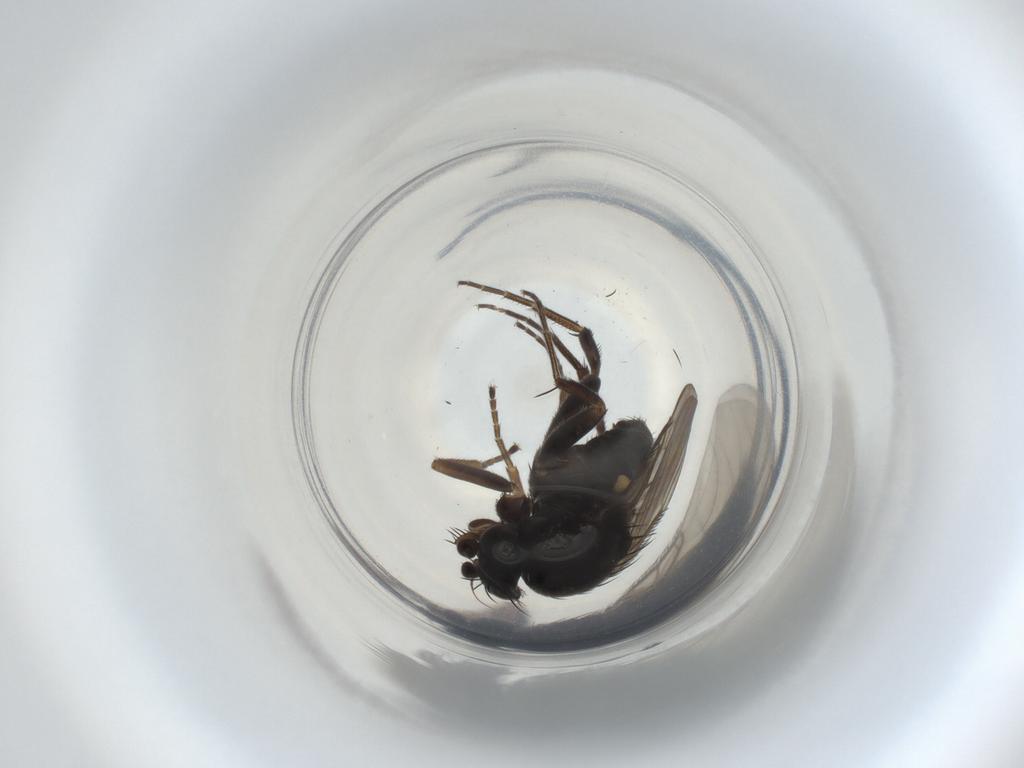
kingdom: Animalia
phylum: Arthropoda
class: Insecta
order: Diptera
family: Phoridae
